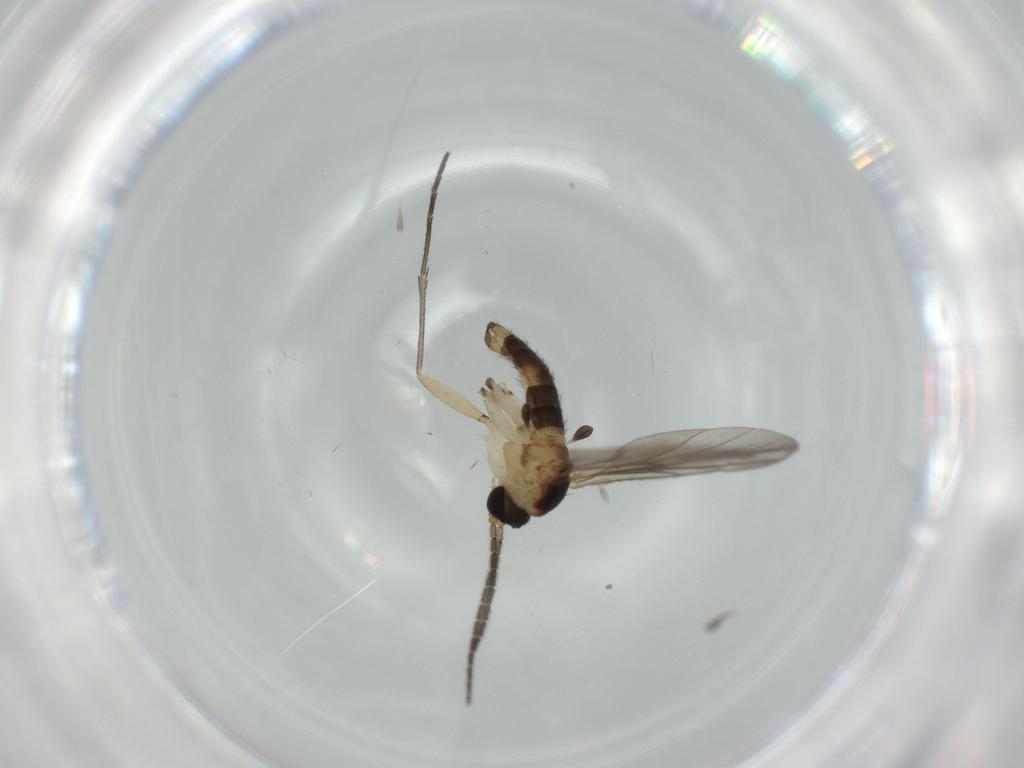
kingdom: Animalia
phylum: Arthropoda
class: Insecta
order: Diptera
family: Sciaridae
